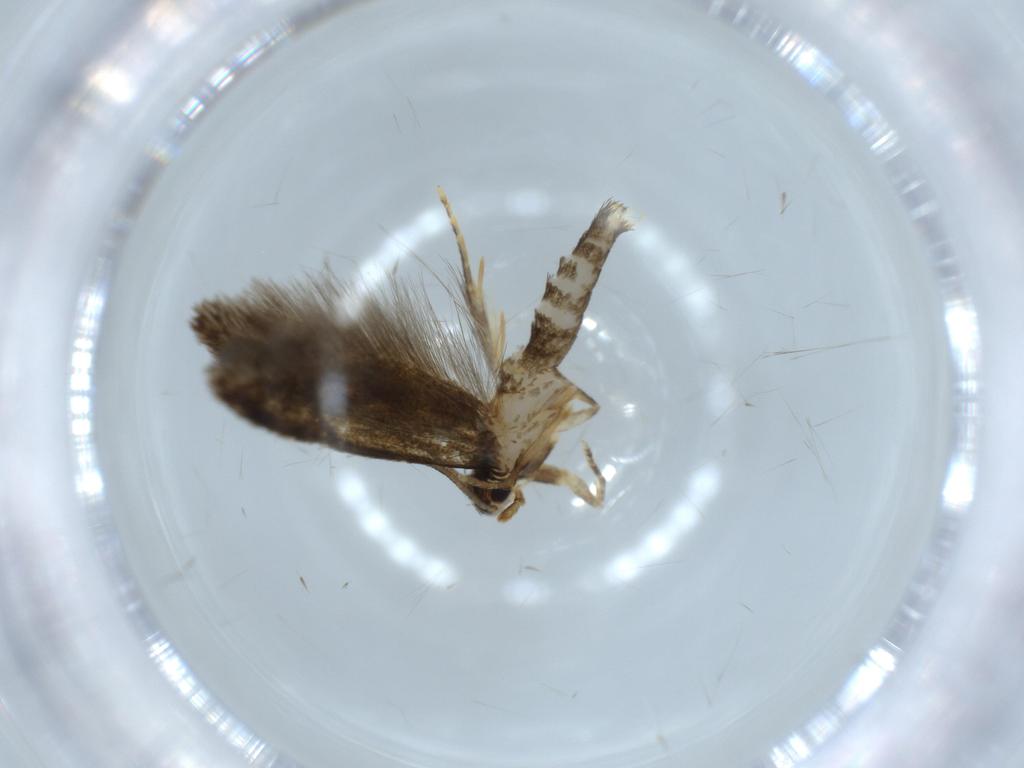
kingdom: Animalia
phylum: Arthropoda
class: Insecta
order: Lepidoptera
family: Tineidae
